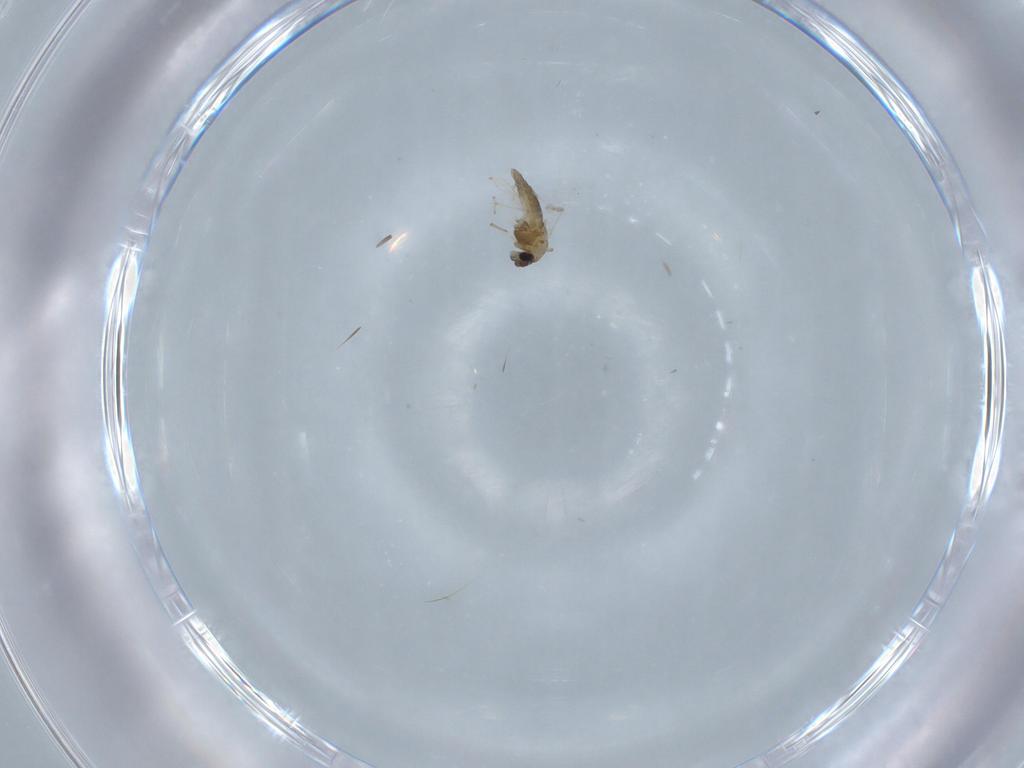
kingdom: Animalia
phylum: Arthropoda
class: Insecta
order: Diptera
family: Chironomidae
